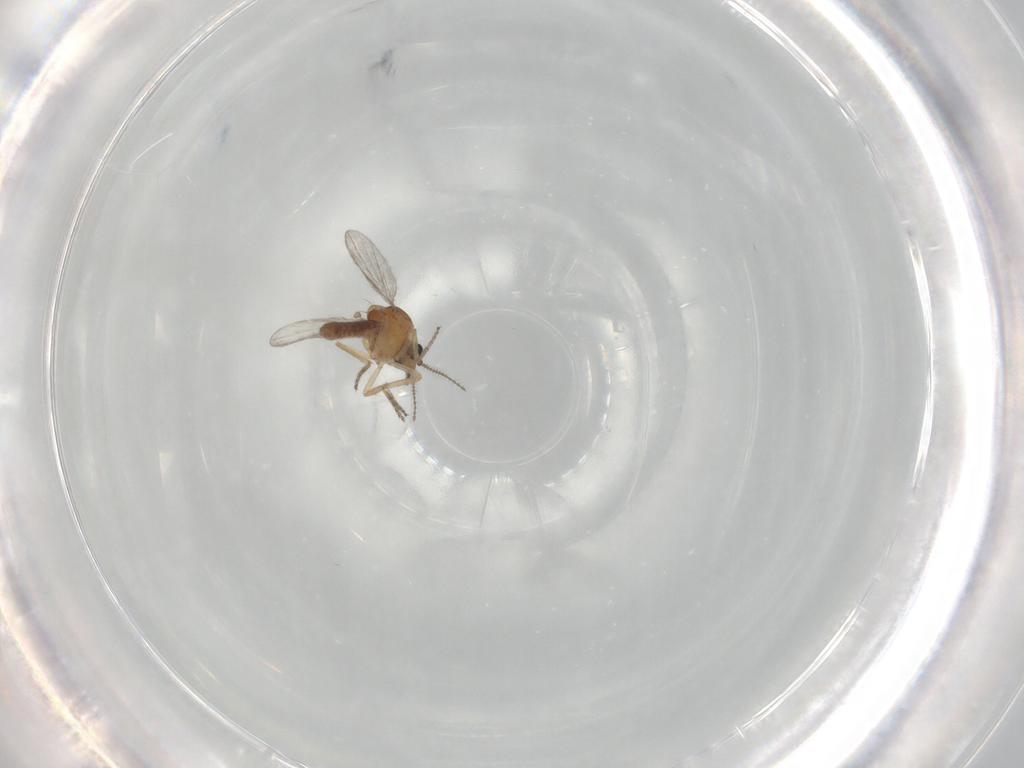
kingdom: Animalia
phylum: Arthropoda
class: Insecta
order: Diptera
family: Ceratopogonidae
